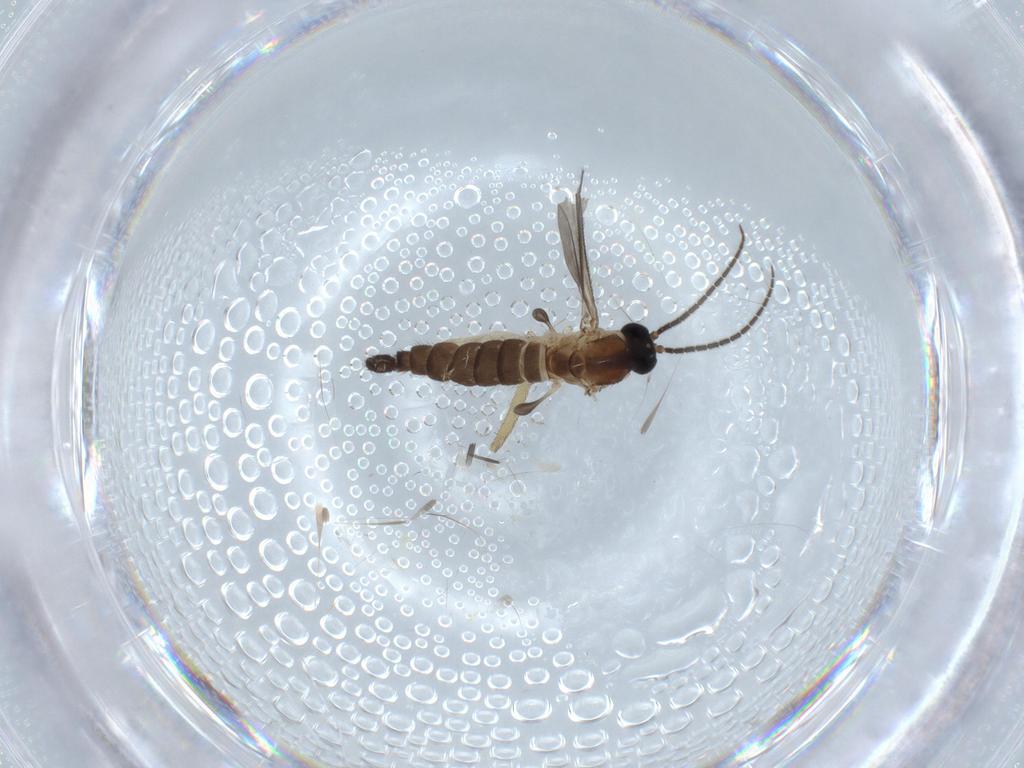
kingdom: Animalia
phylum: Arthropoda
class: Insecta
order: Diptera
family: Sciaridae
